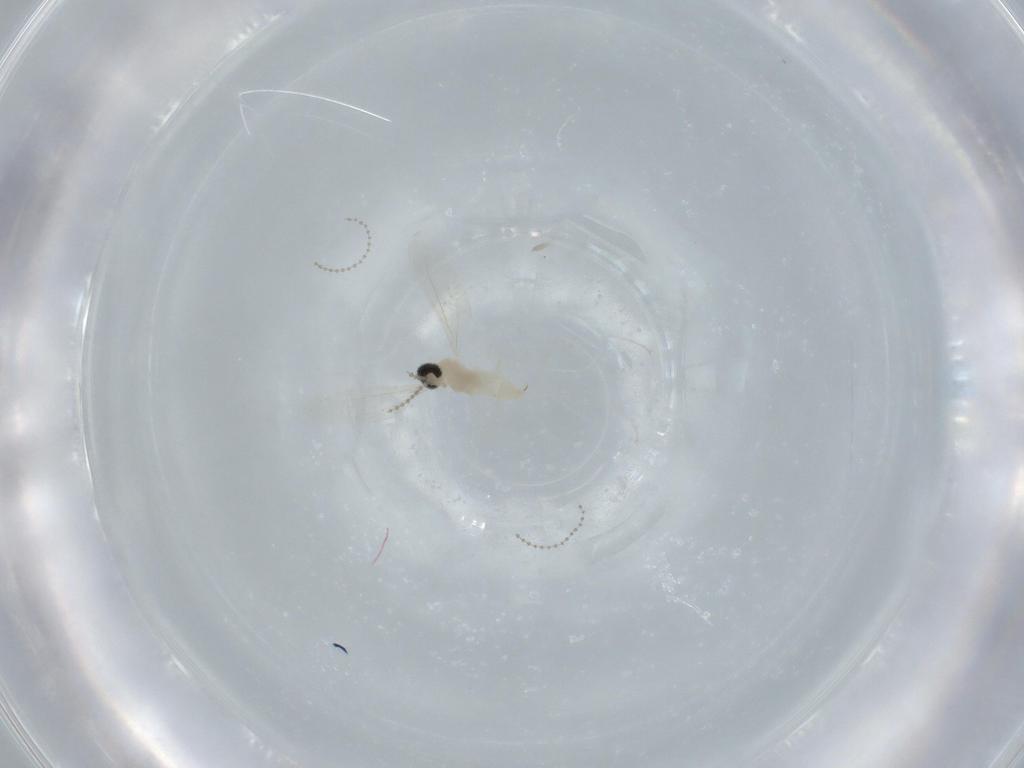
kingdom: Animalia
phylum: Arthropoda
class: Insecta
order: Diptera
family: Cecidomyiidae
